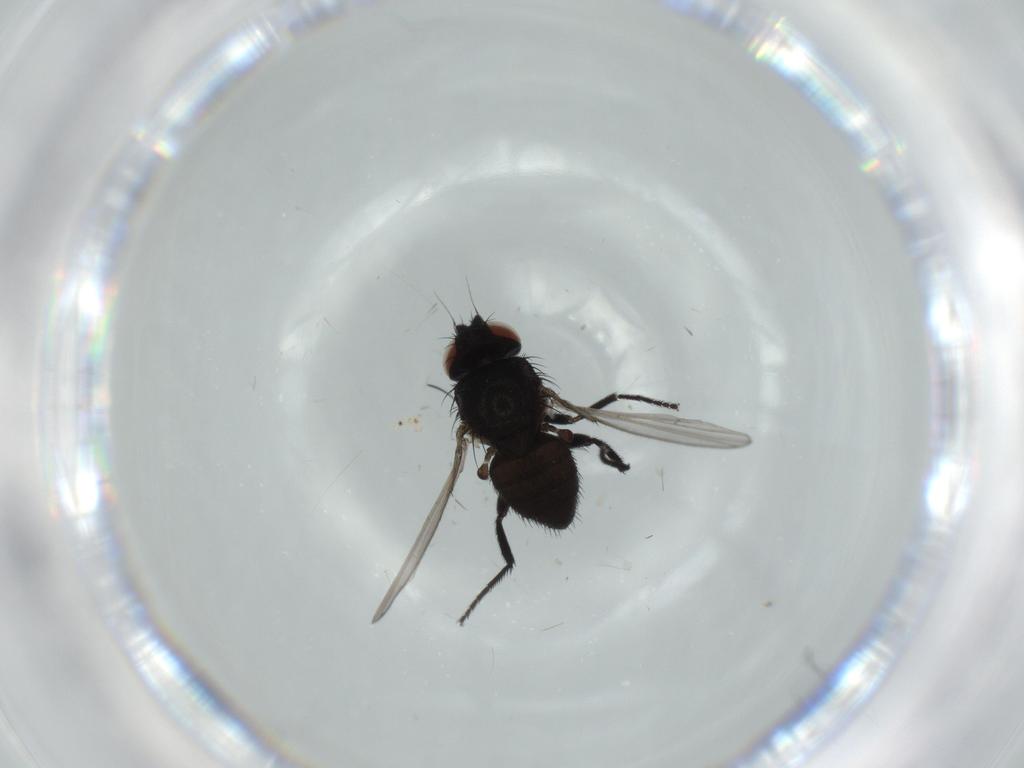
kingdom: Animalia
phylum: Arthropoda
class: Insecta
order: Diptera
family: Milichiidae
